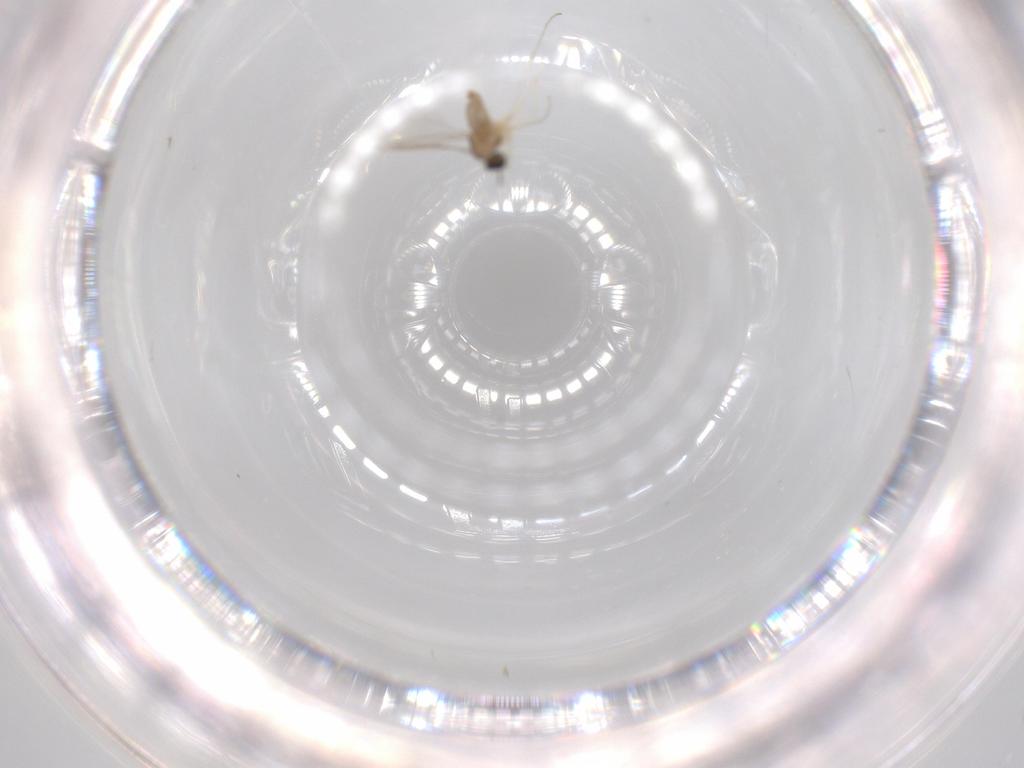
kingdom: Animalia
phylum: Arthropoda
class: Insecta
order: Diptera
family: Cecidomyiidae
